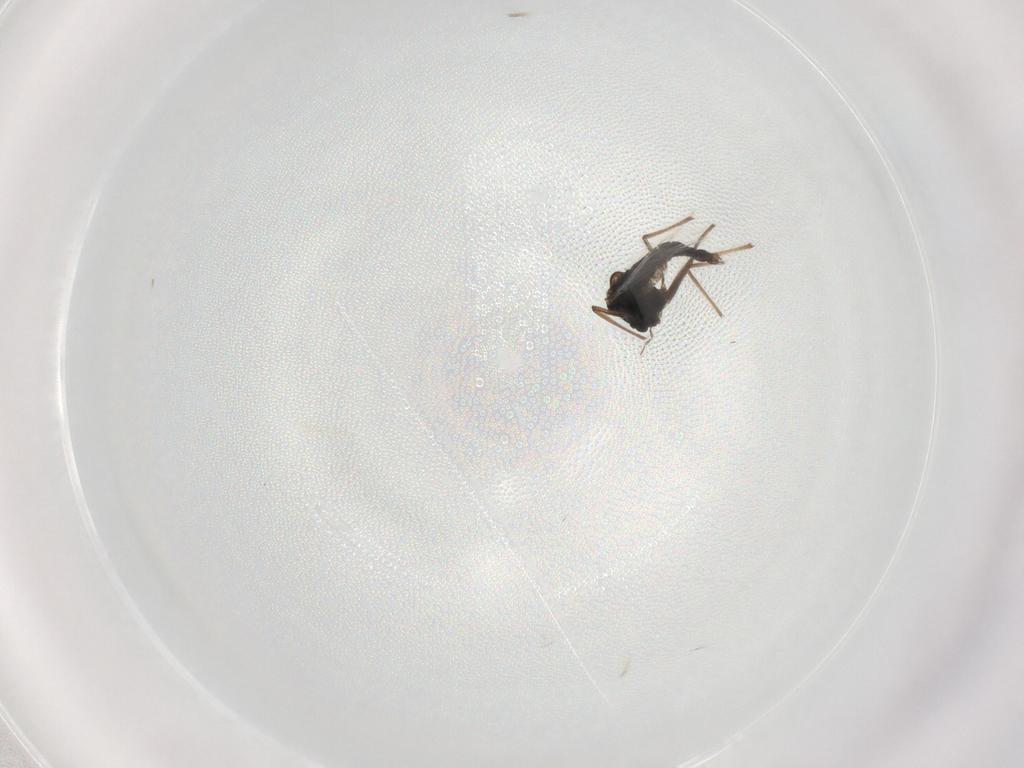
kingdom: Animalia
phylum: Arthropoda
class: Insecta
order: Diptera
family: Chironomidae
